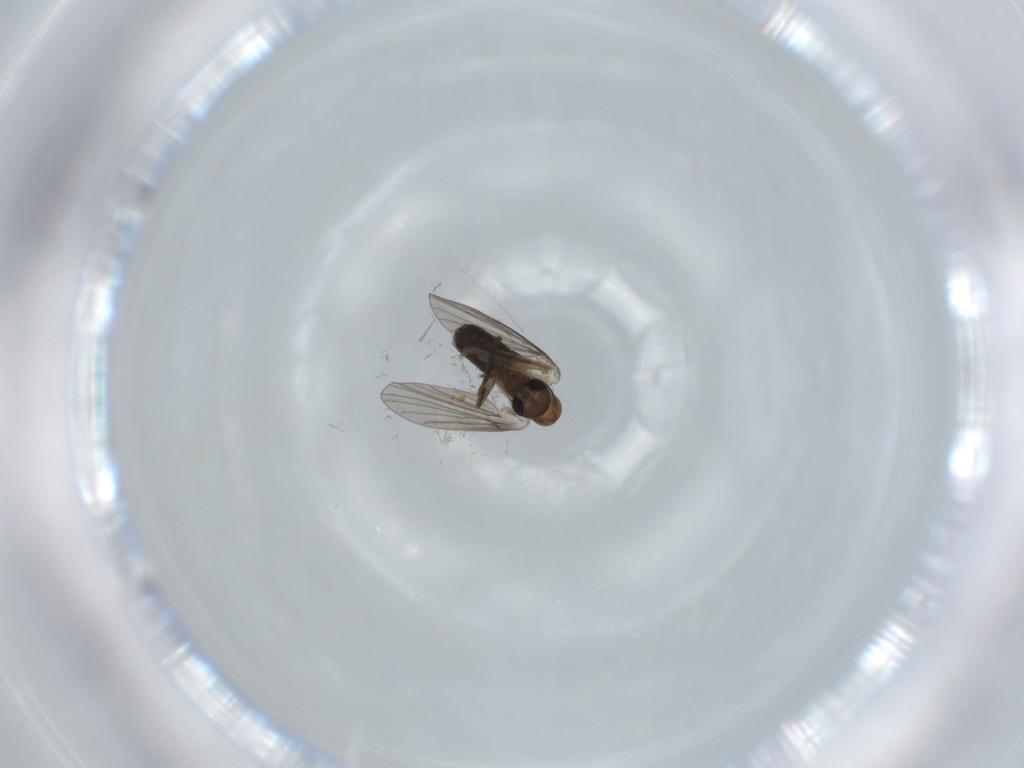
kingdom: Animalia
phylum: Arthropoda
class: Insecta
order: Diptera
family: Psychodidae
